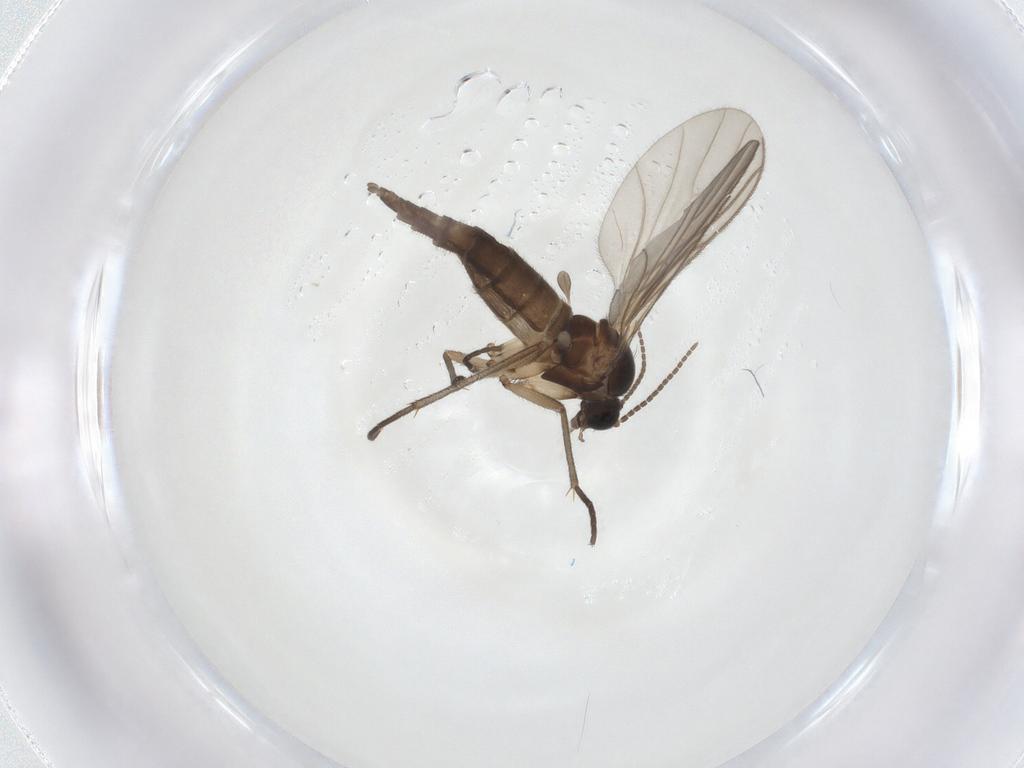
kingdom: Animalia
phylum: Arthropoda
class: Insecta
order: Diptera
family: Sciaridae
